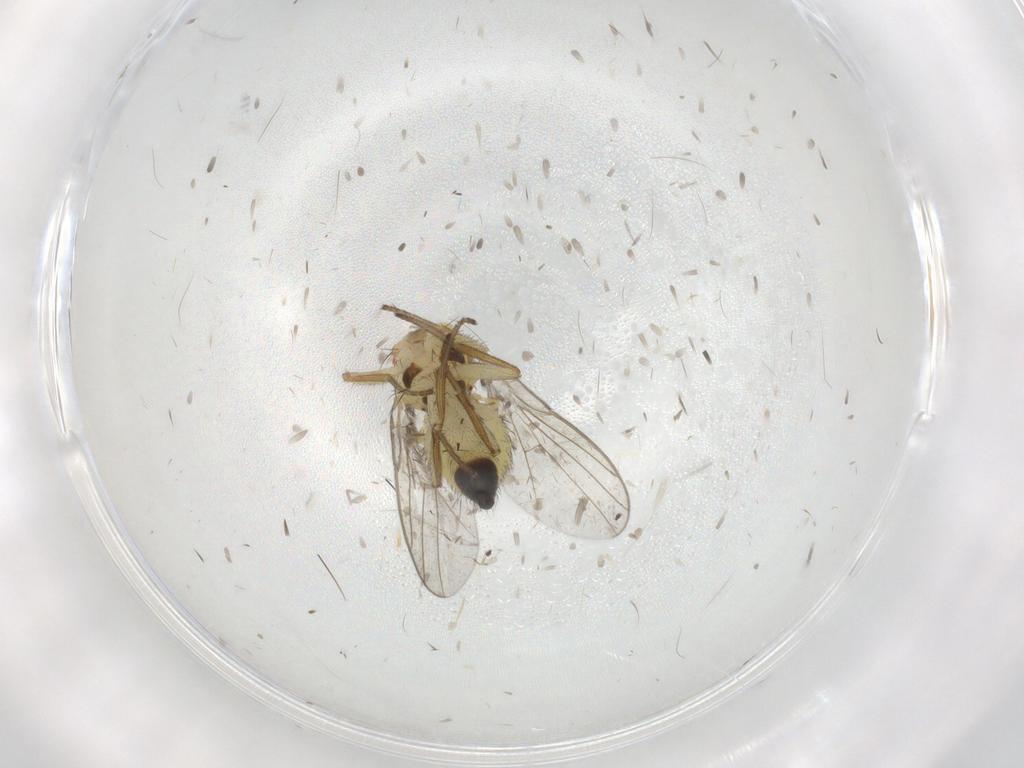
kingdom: Animalia
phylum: Arthropoda
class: Insecta
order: Diptera
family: Agromyzidae
